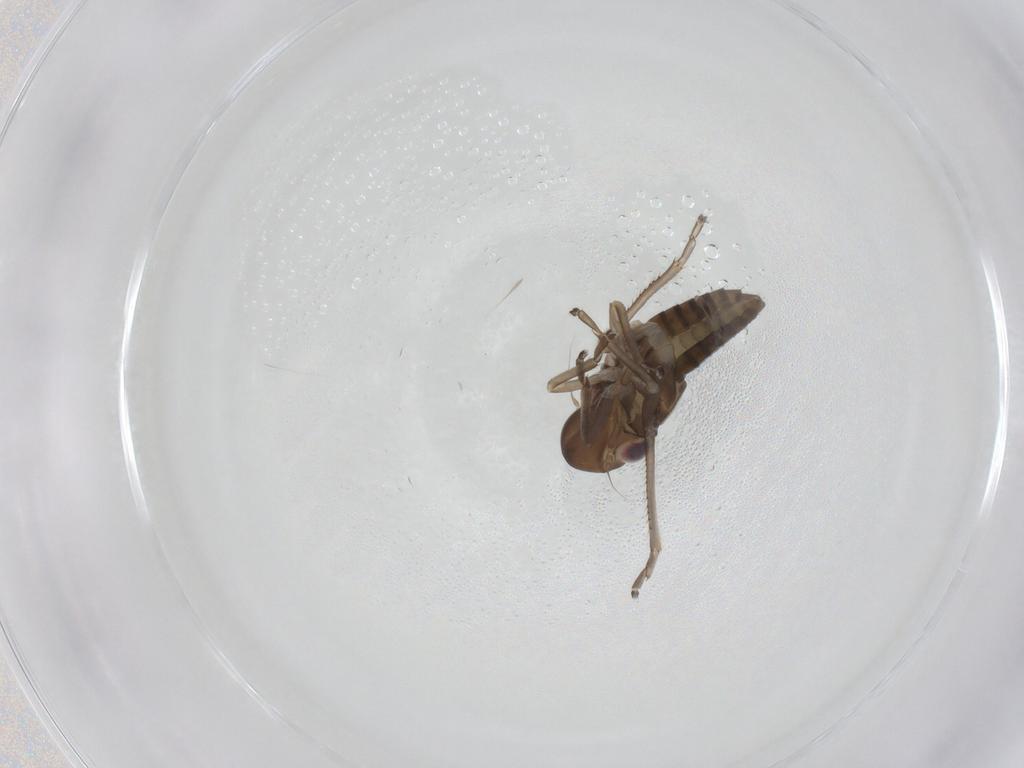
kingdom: Animalia
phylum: Arthropoda
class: Insecta
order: Hemiptera
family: Cicadellidae
